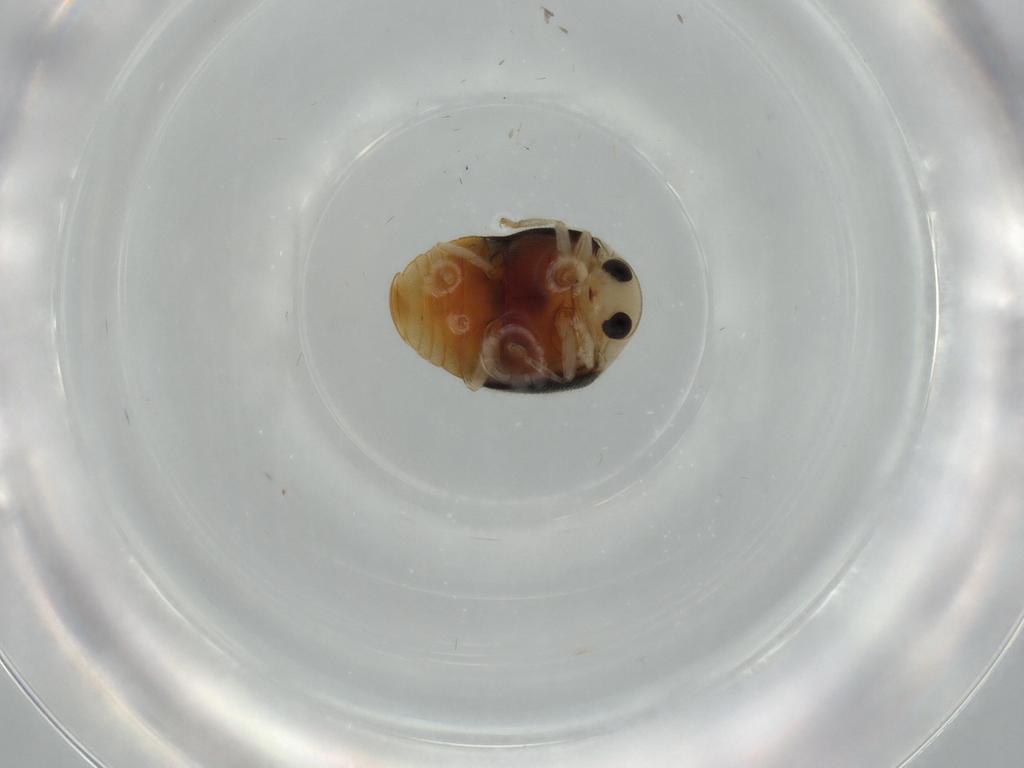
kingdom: Animalia
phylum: Arthropoda
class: Insecta
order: Coleoptera
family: Coccinellidae
